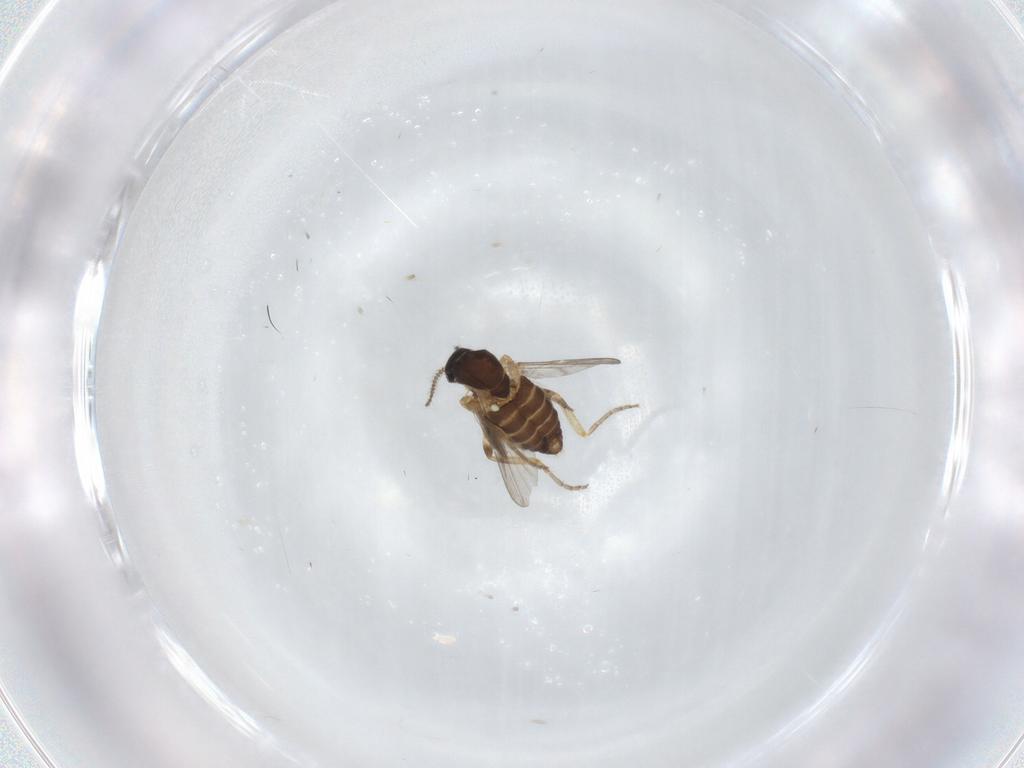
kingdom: Animalia
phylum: Arthropoda
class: Insecta
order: Diptera
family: Ceratopogonidae
